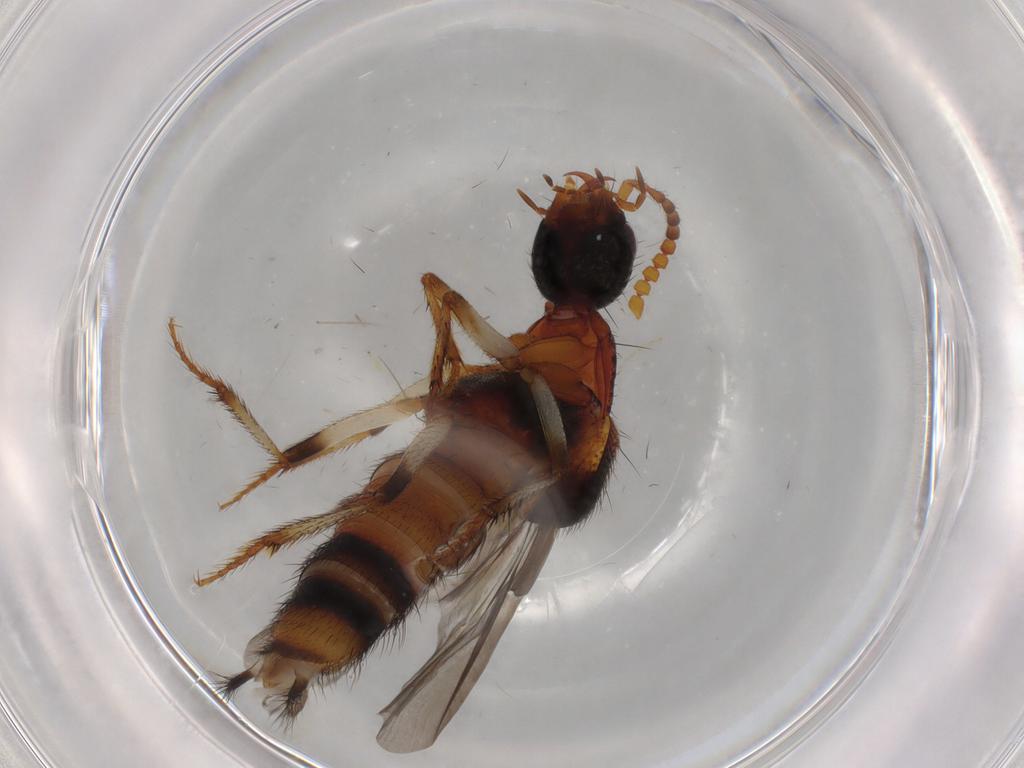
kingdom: Animalia
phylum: Arthropoda
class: Insecta
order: Coleoptera
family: Staphylinidae
